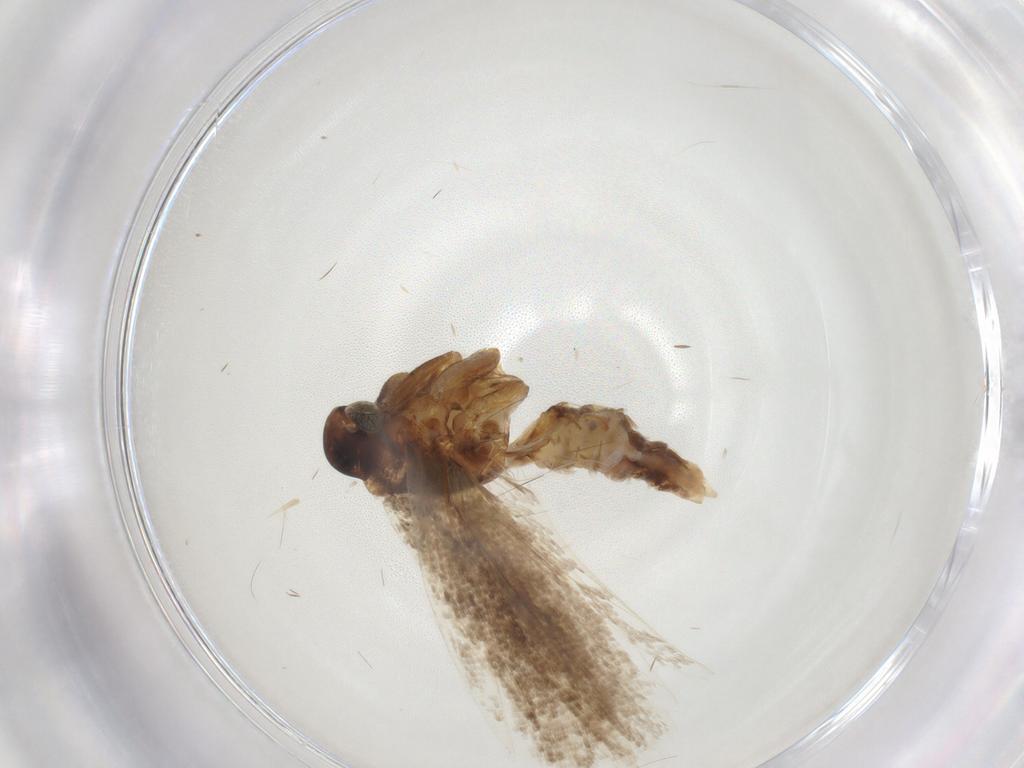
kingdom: Animalia
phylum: Arthropoda
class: Insecta
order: Lepidoptera
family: Gelechiidae
